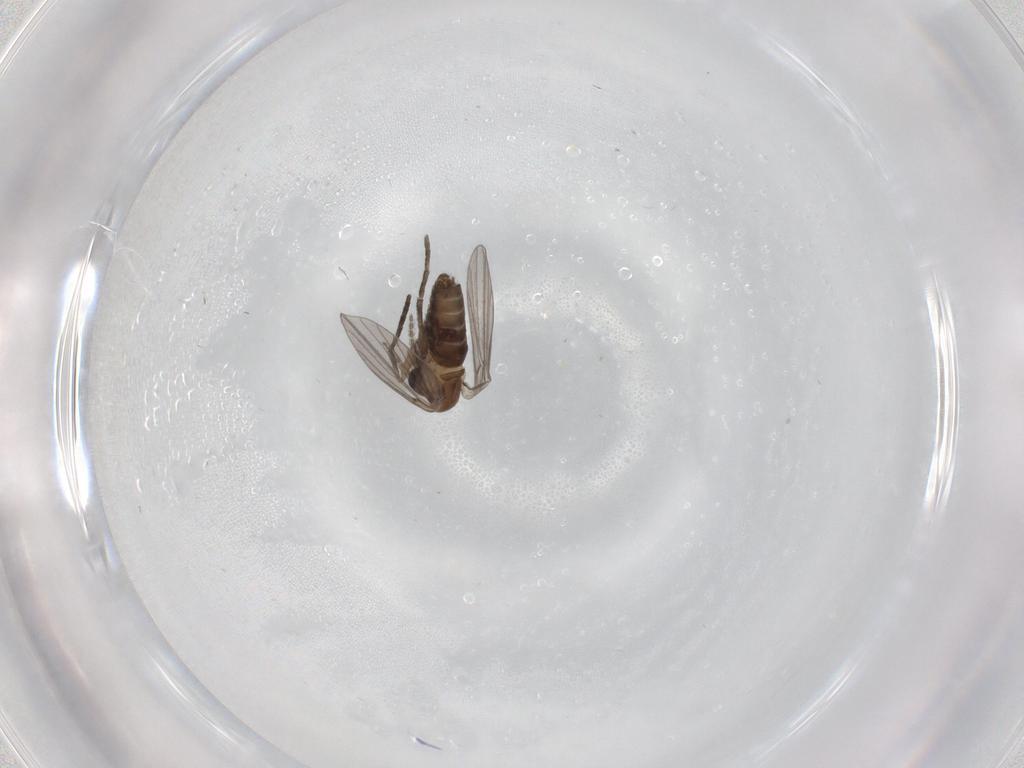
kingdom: Animalia
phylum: Arthropoda
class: Insecta
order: Diptera
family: Psychodidae
